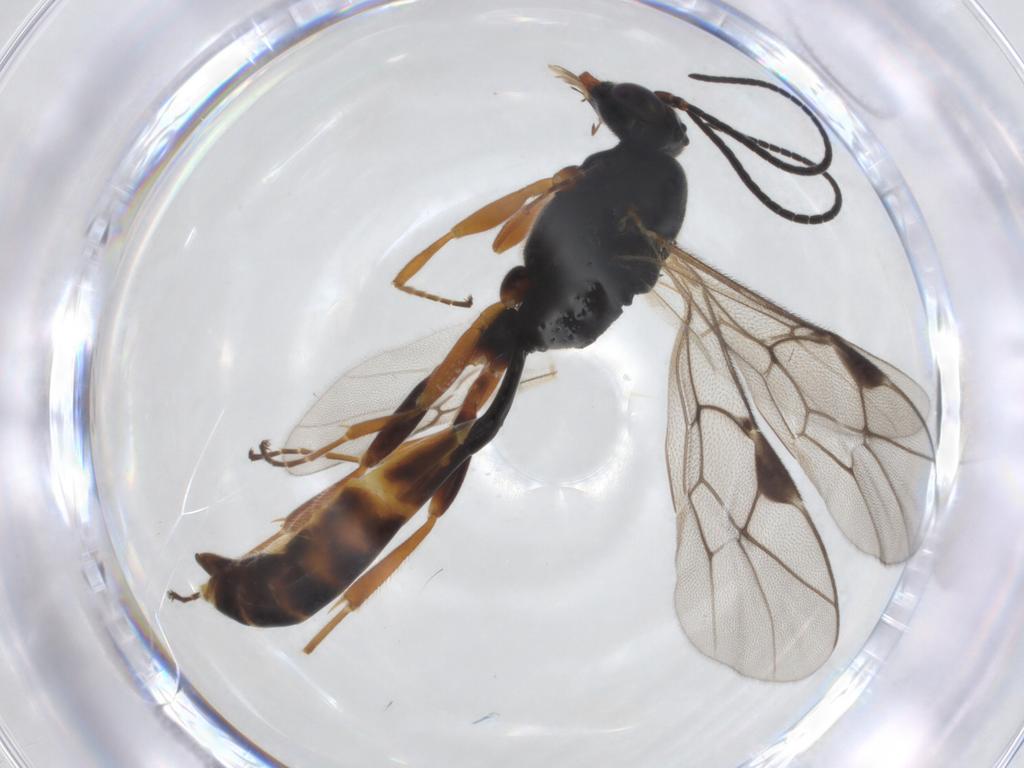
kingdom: Animalia
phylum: Arthropoda
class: Insecta
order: Hymenoptera
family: Ichneumonidae
